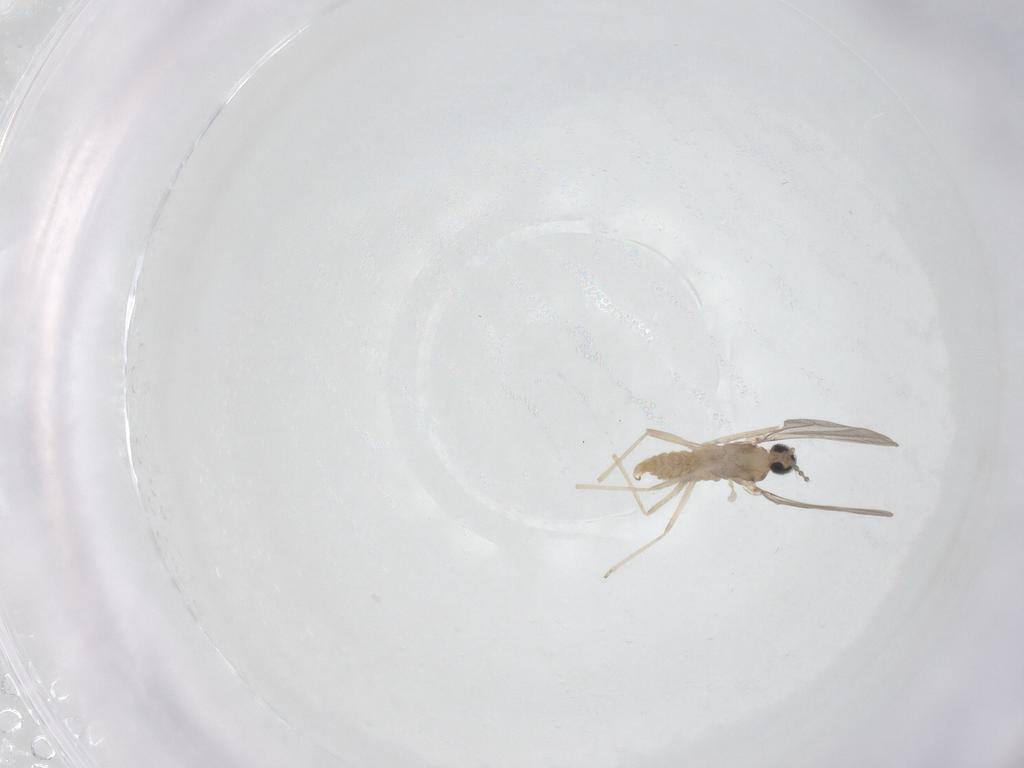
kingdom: Animalia
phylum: Arthropoda
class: Insecta
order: Diptera
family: Cecidomyiidae
